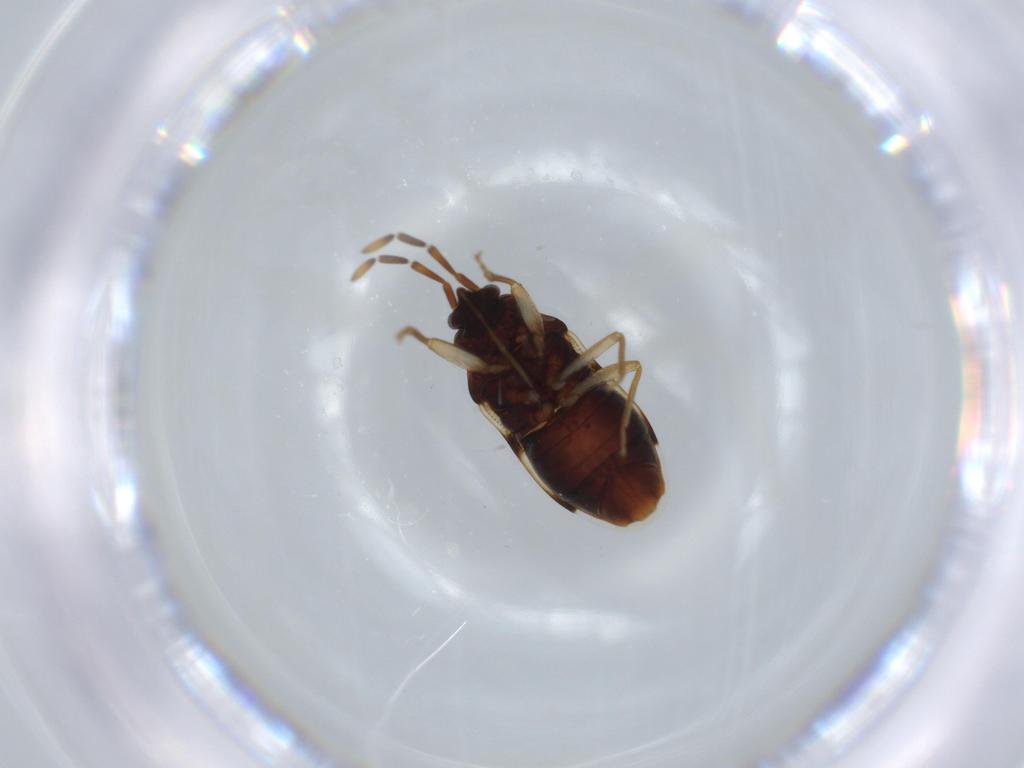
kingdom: Animalia
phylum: Arthropoda
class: Insecta
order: Hemiptera
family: Rhyparochromidae
